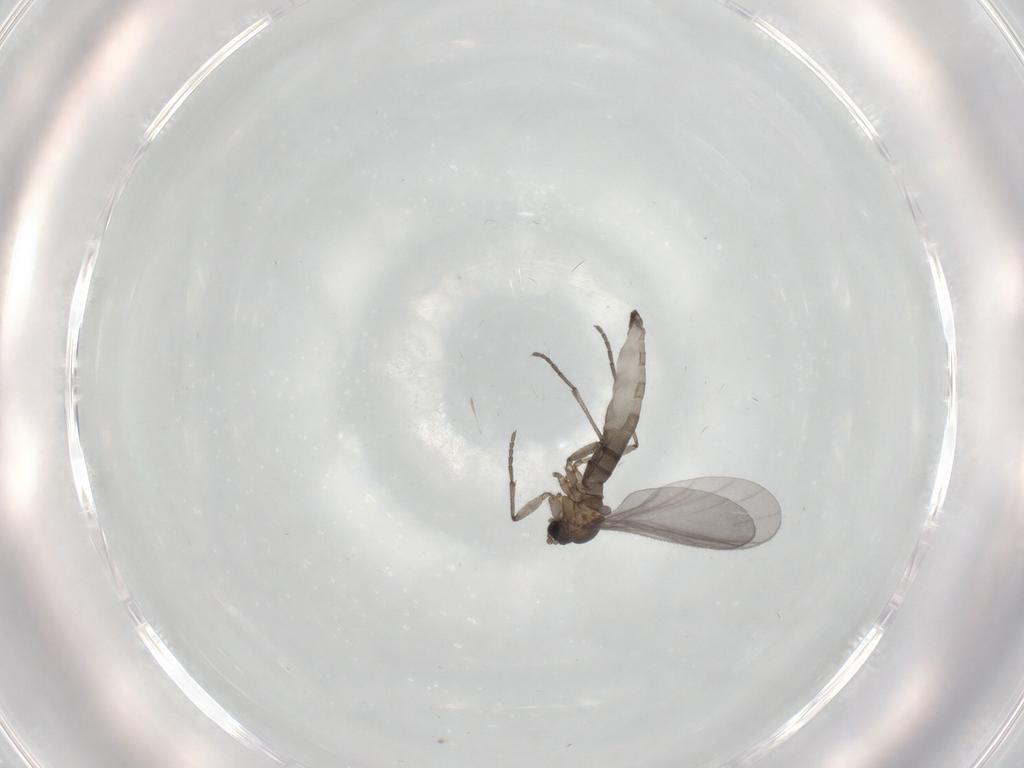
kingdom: Animalia
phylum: Arthropoda
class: Insecta
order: Diptera
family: Sciaridae
